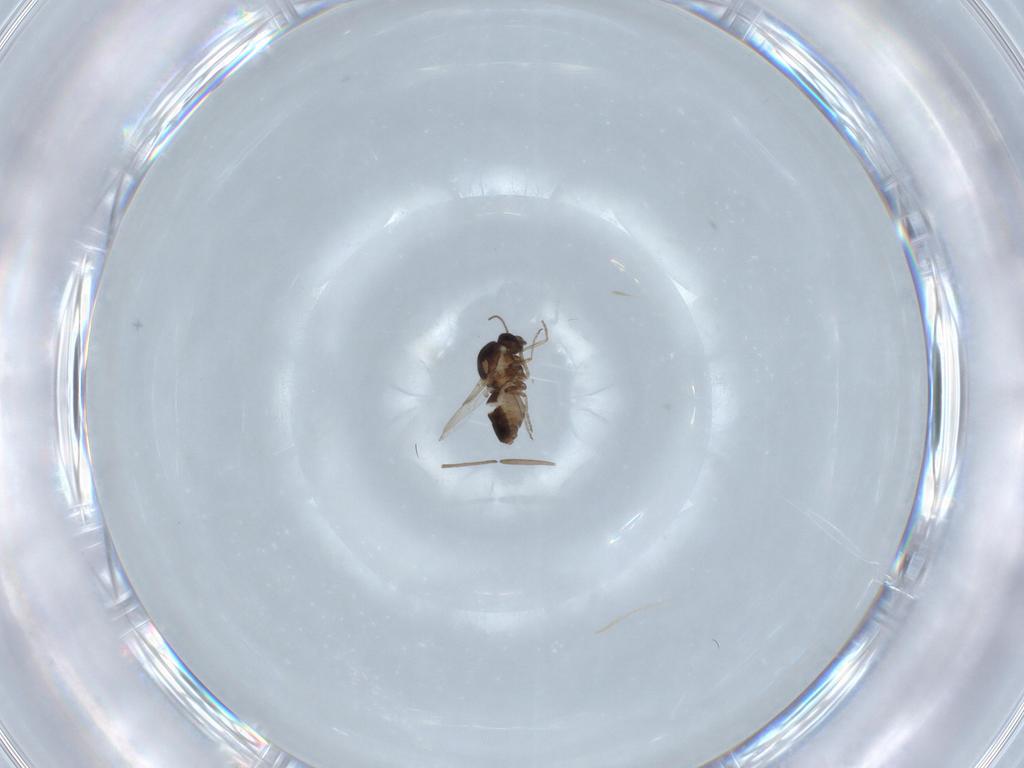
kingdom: Animalia
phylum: Arthropoda
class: Insecta
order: Diptera
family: Ceratopogonidae
